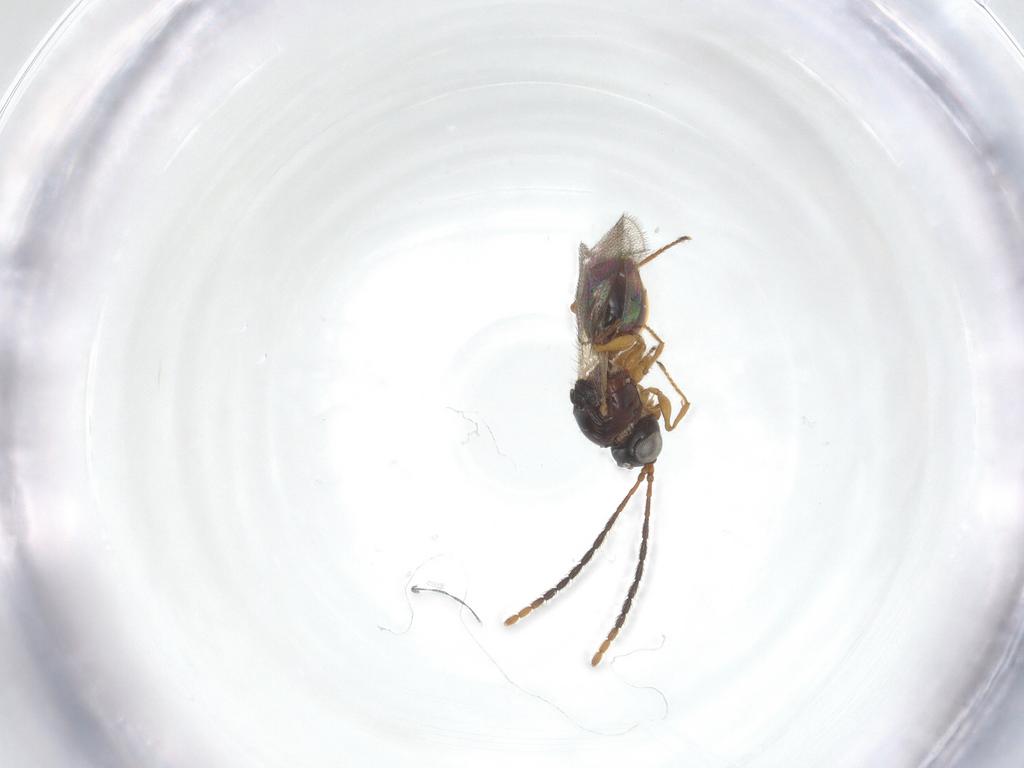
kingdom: Animalia
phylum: Arthropoda
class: Insecta
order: Hymenoptera
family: Figitidae
